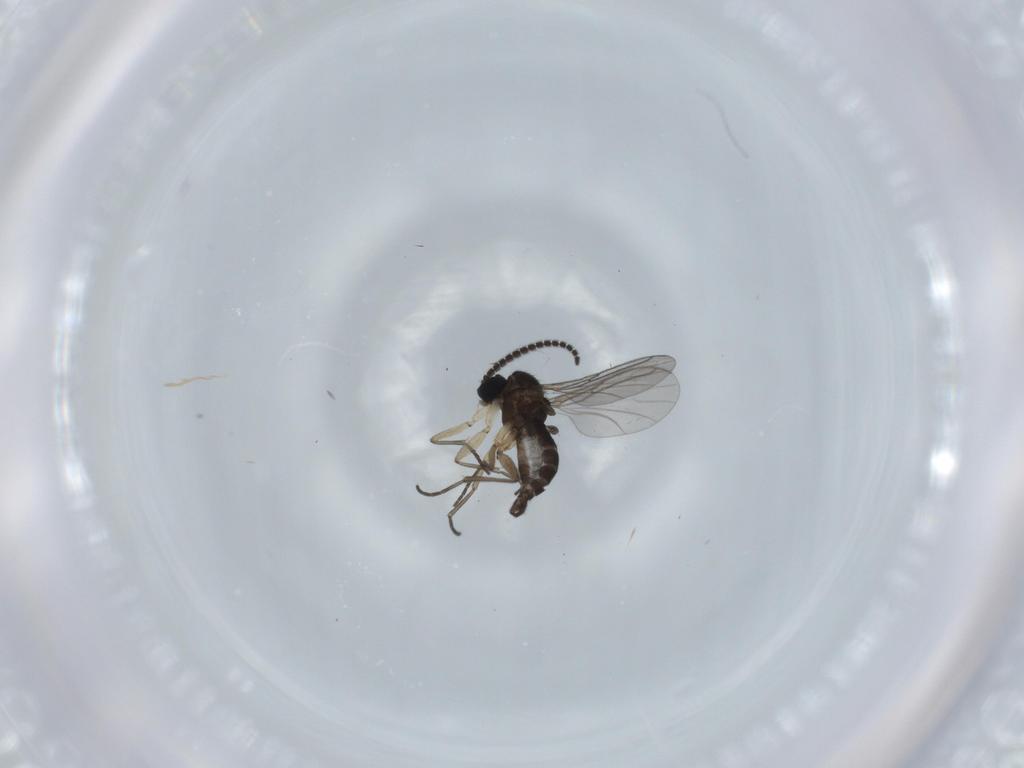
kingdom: Animalia
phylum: Arthropoda
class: Insecta
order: Diptera
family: Sciaridae
